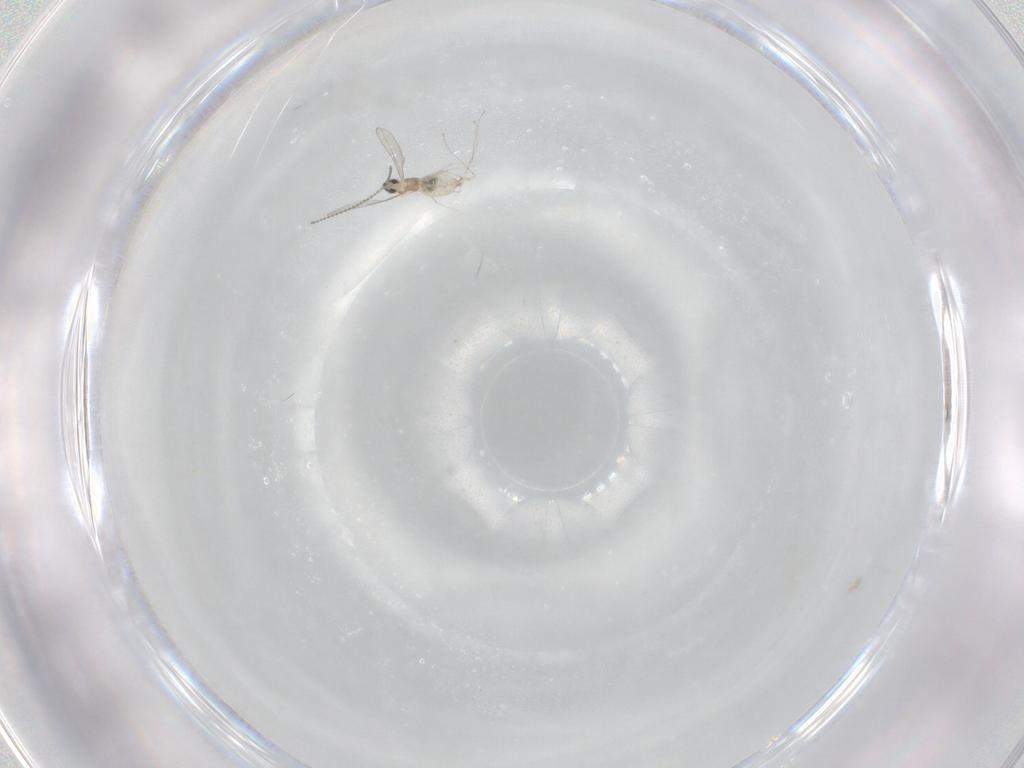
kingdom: Animalia
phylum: Arthropoda
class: Insecta
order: Diptera
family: Cecidomyiidae
